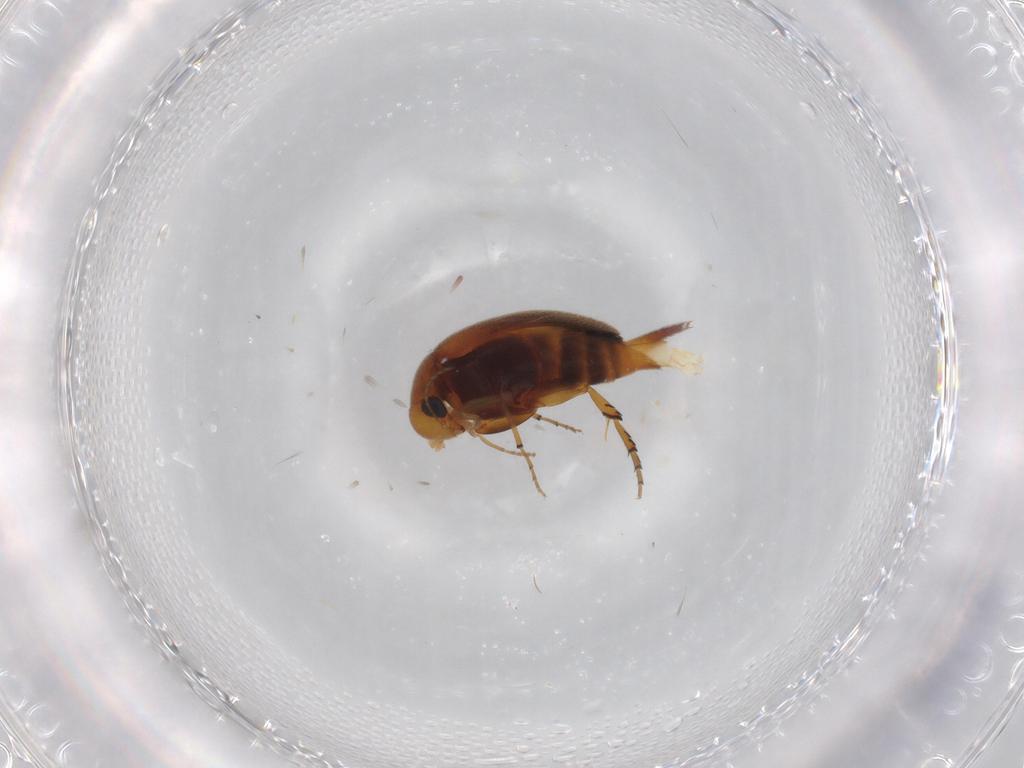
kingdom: Animalia
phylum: Arthropoda
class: Insecta
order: Coleoptera
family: Mordellidae
